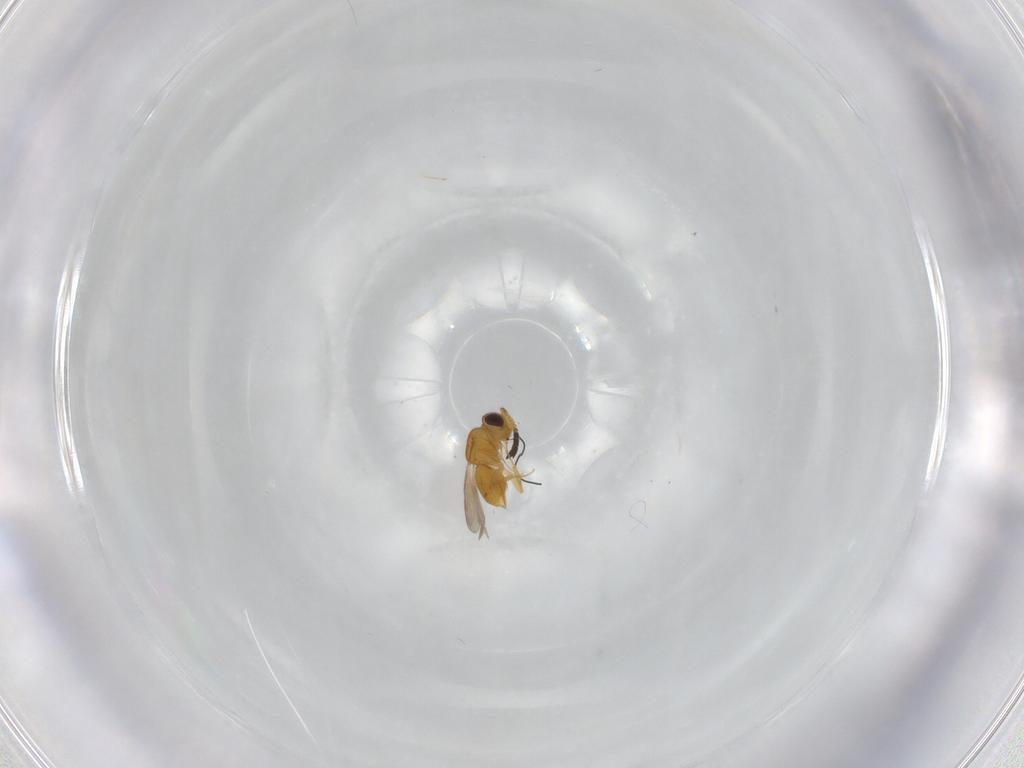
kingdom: Animalia
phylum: Arthropoda
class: Insecta
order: Hymenoptera
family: Ceraphronidae
